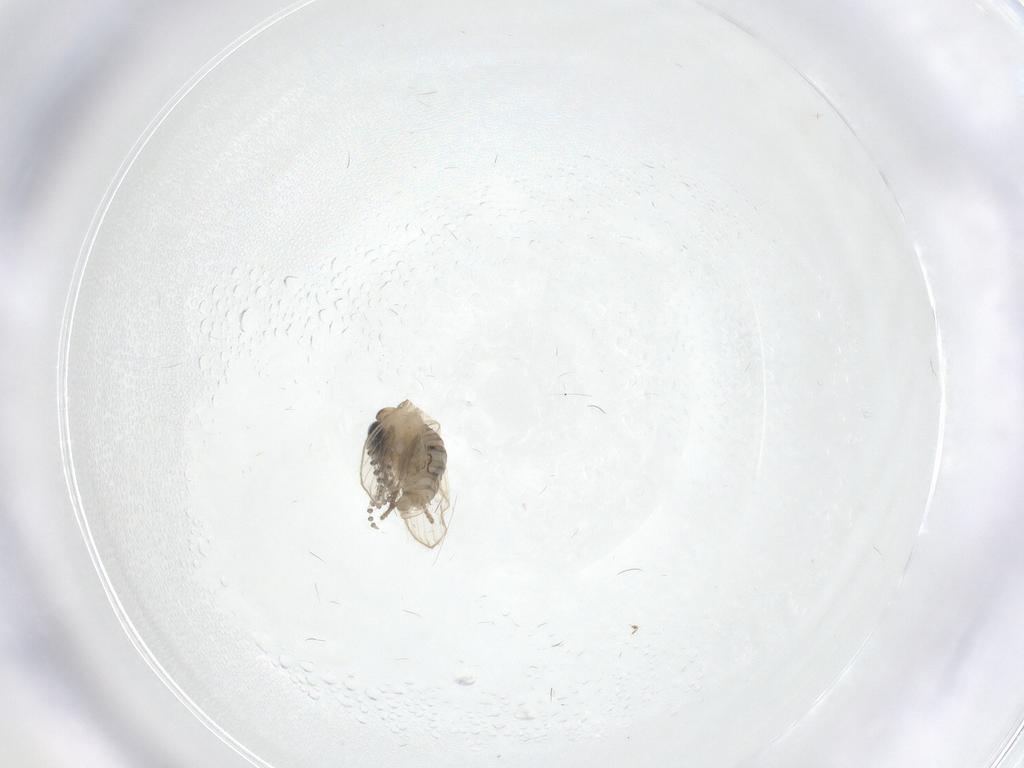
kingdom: Animalia
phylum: Arthropoda
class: Insecta
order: Diptera
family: Limoniidae
